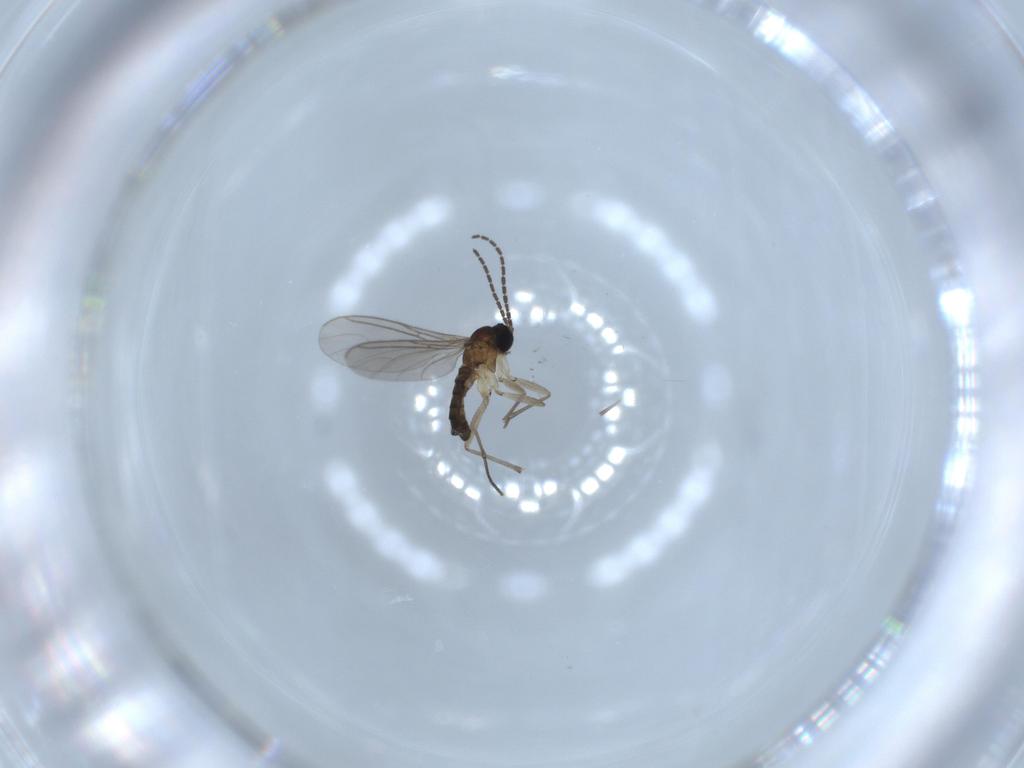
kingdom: Animalia
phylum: Arthropoda
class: Insecta
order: Diptera
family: Sciaridae
